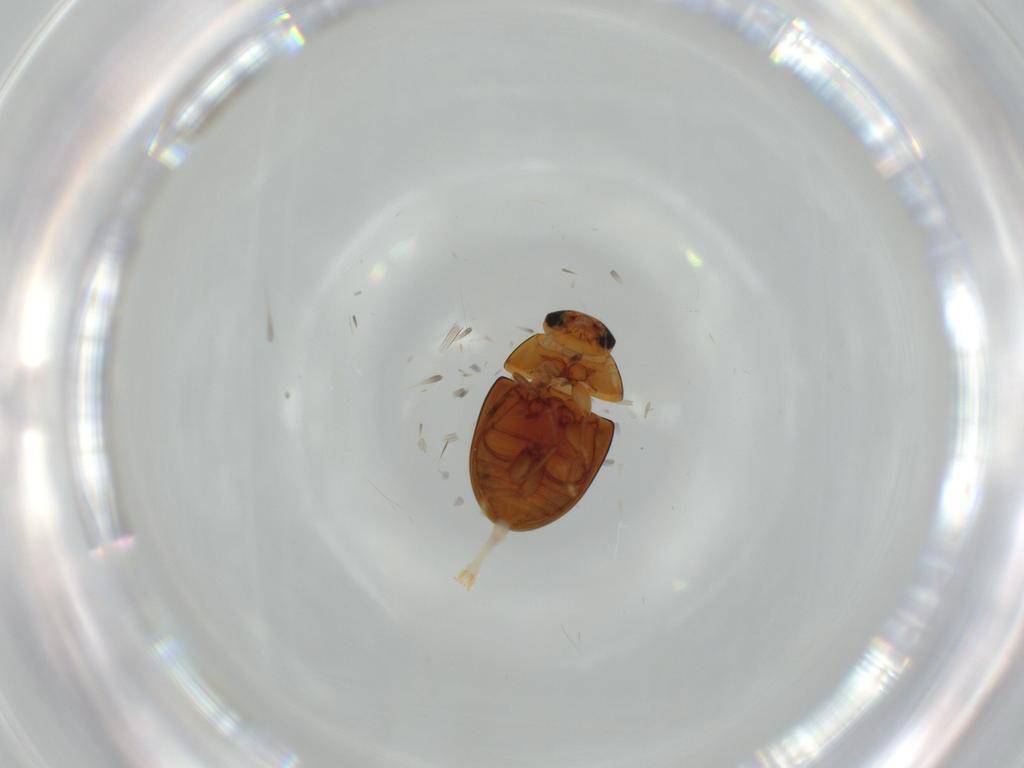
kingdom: Animalia
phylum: Arthropoda
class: Insecta
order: Coleoptera
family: Phalacridae
